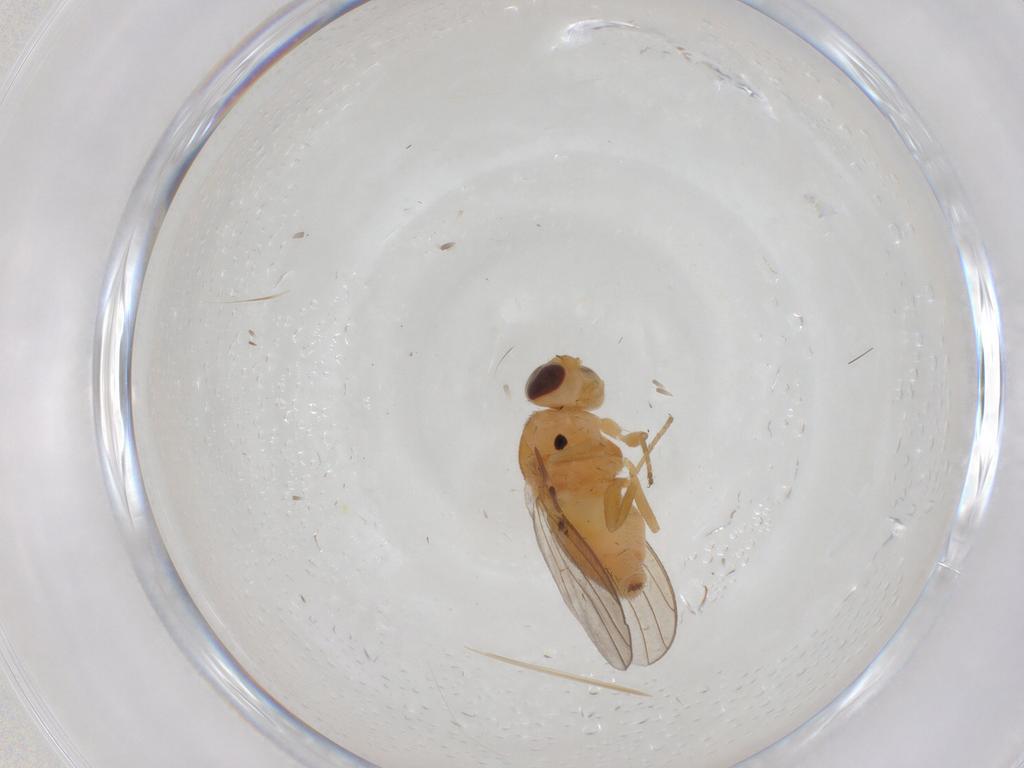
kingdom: Animalia
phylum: Arthropoda
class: Insecta
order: Diptera
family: Chloropidae
